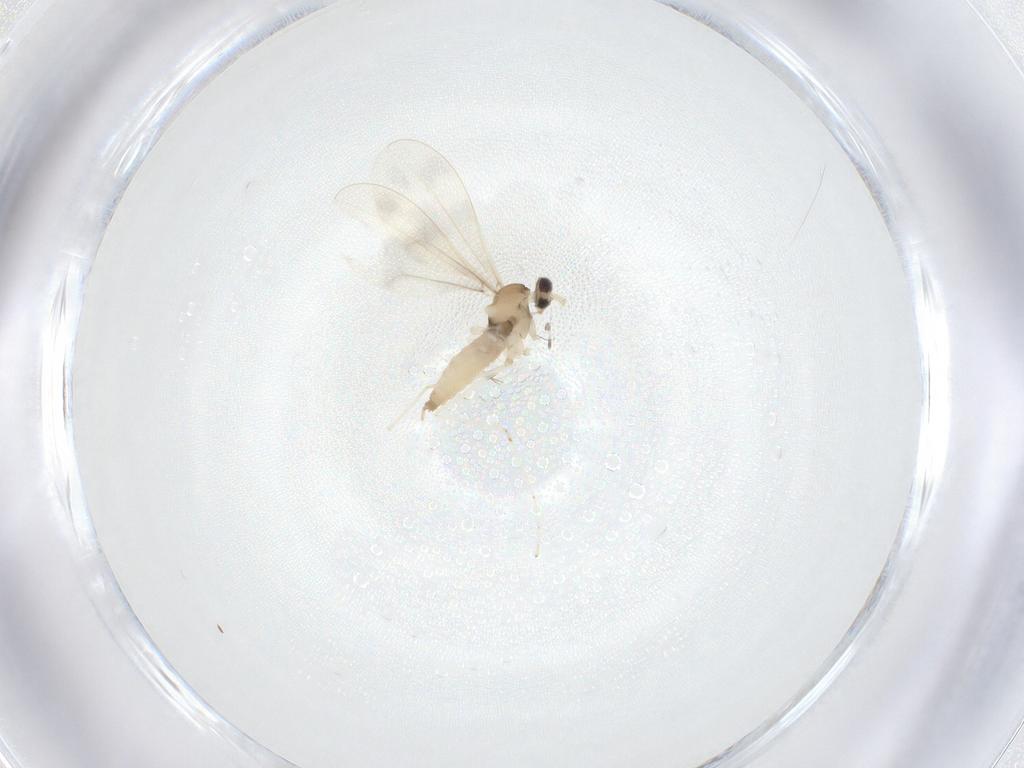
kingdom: Animalia
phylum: Arthropoda
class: Insecta
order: Diptera
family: Cecidomyiidae
